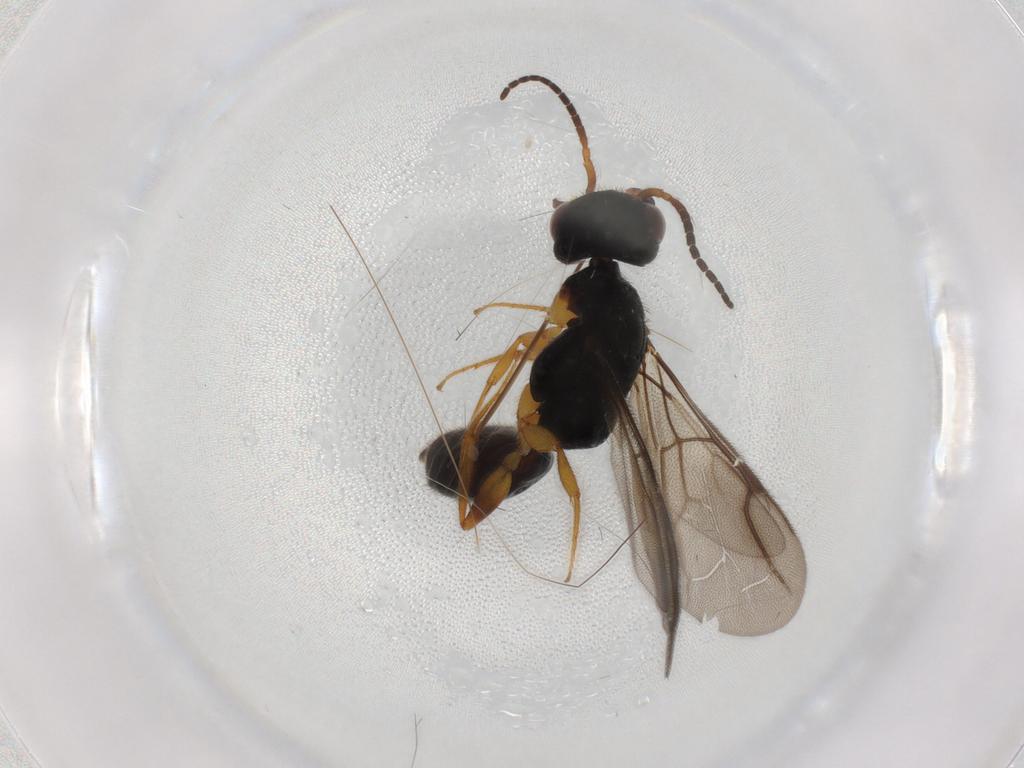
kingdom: Animalia
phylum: Arthropoda
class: Insecta
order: Hymenoptera
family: Bethylidae
